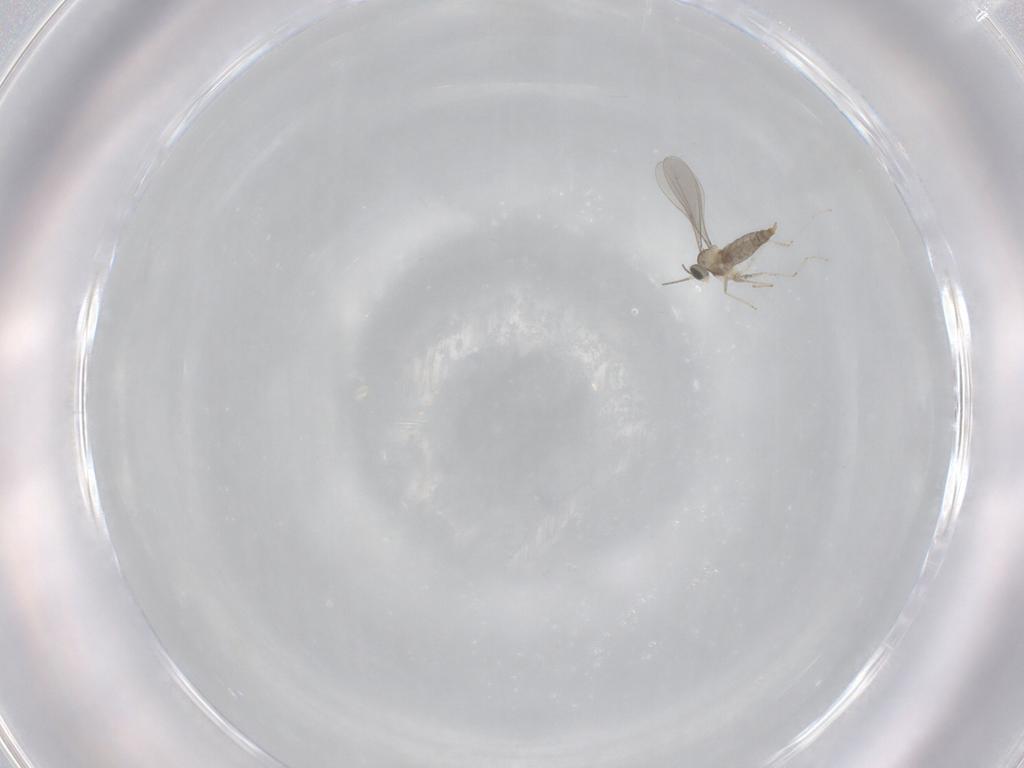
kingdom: Animalia
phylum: Arthropoda
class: Insecta
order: Diptera
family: Cecidomyiidae
